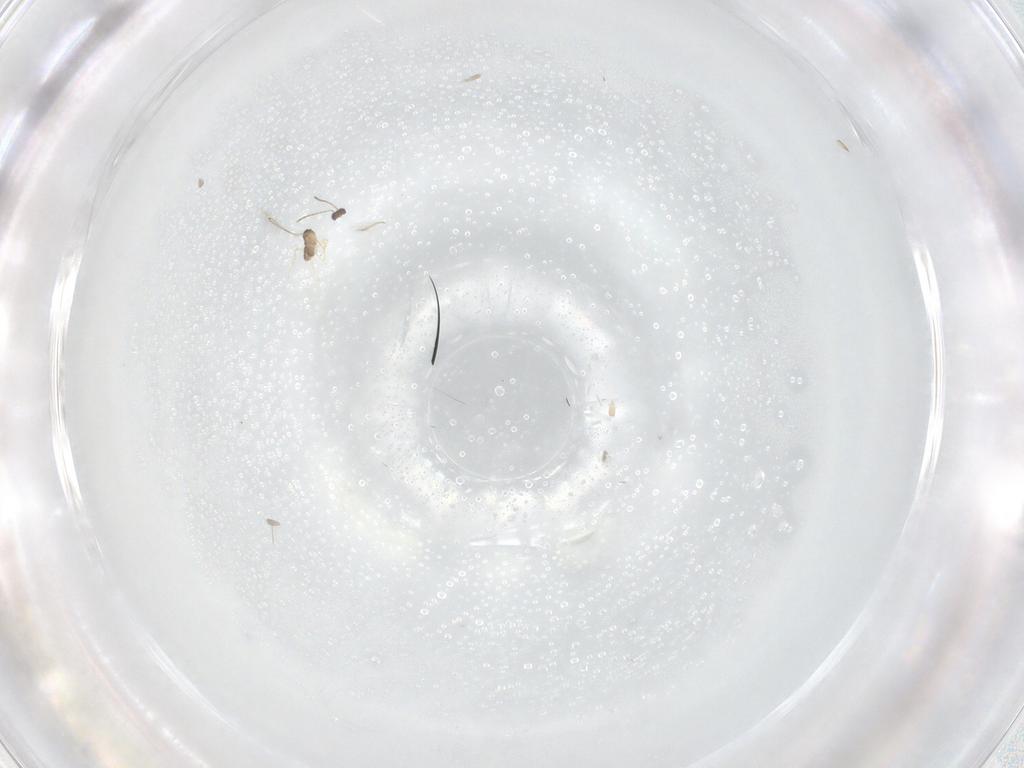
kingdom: Animalia
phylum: Arthropoda
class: Insecta
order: Hymenoptera
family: Mymaridae
